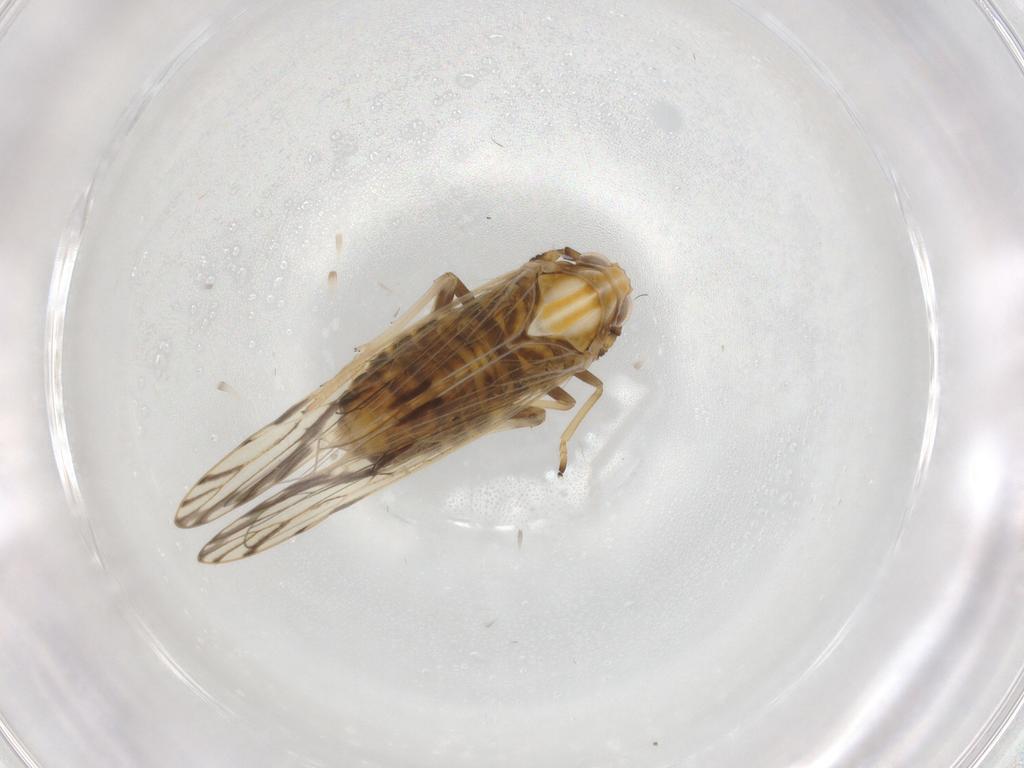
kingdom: Animalia
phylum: Arthropoda
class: Insecta
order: Hemiptera
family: Delphacidae
